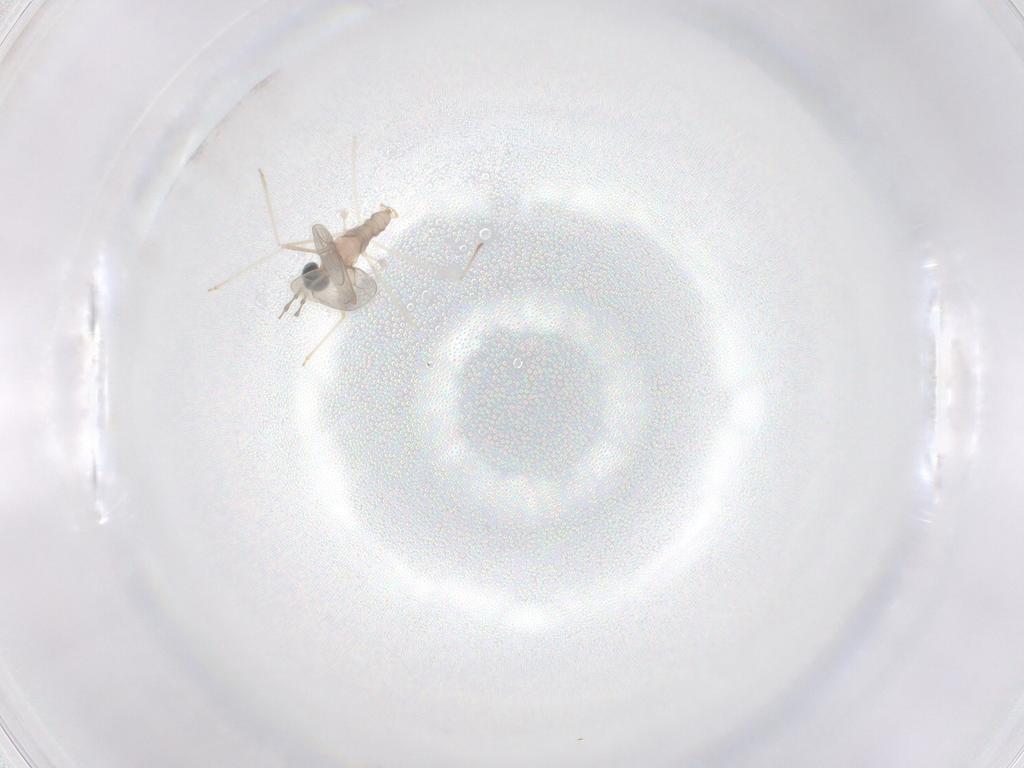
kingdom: Animalia
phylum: Arthropoda
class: Insecta
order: Diptera
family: Cecidomyiidae
